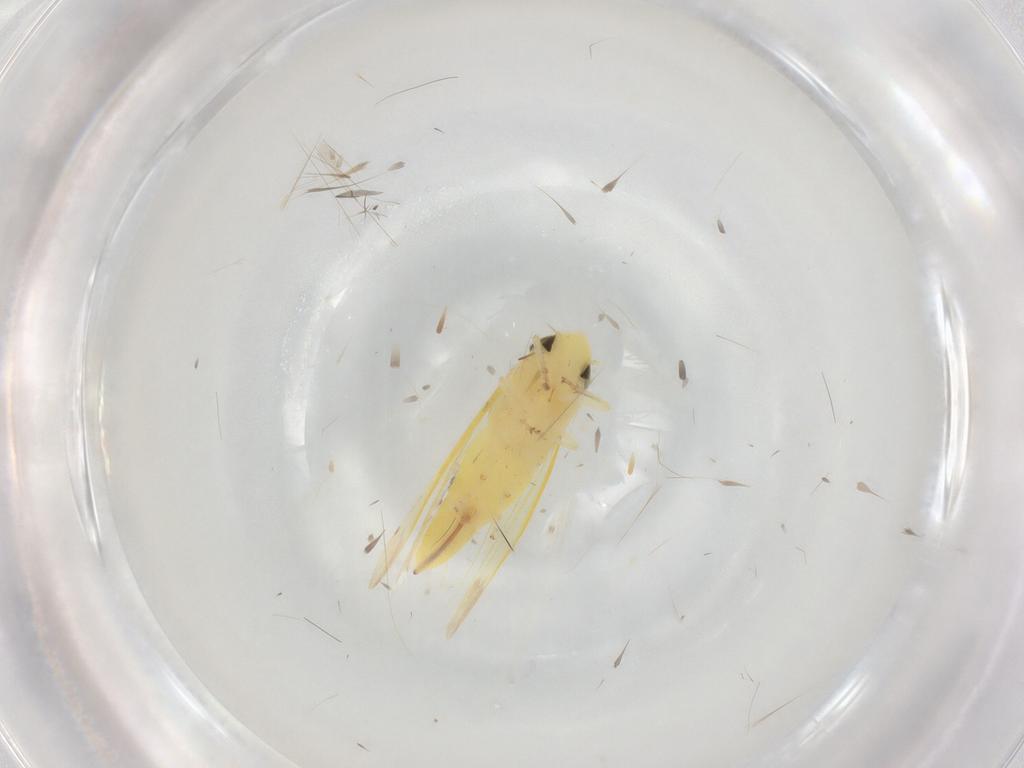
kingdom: Animalia
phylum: Arthropoda
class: Insecta
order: Hemiptera
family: Cicadellidae
